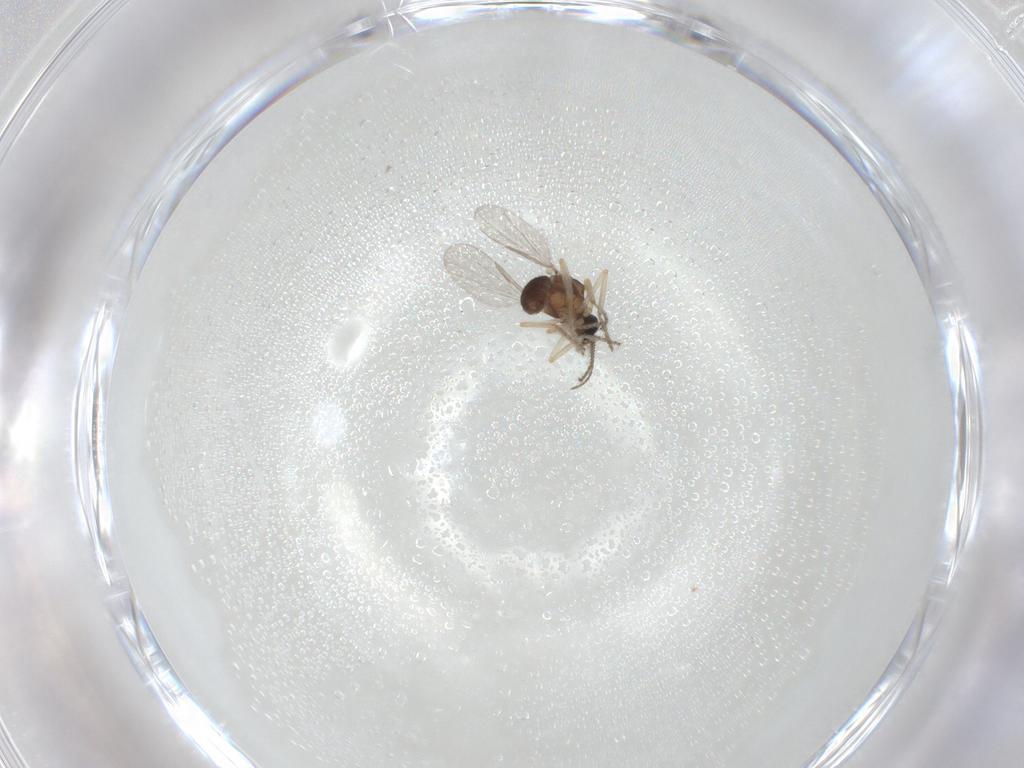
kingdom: Animalia
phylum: Arthropoda
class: Insecta
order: Diptera
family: Ceratopogonidae
